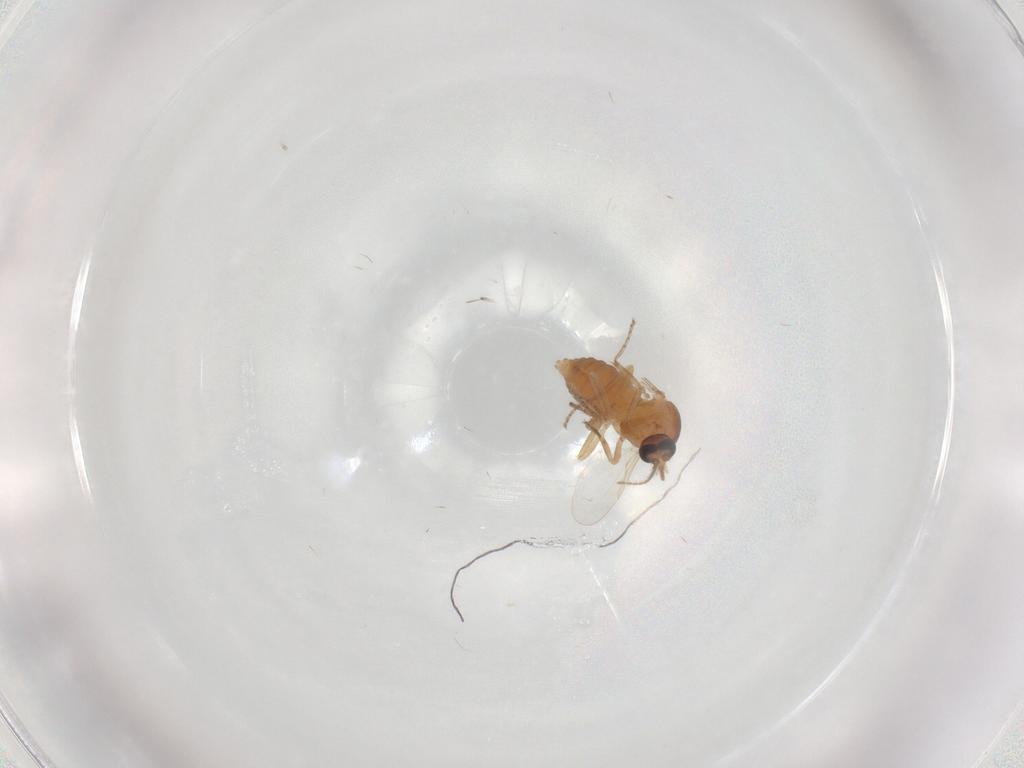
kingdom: Animalia
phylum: Arthropoda
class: Insecta
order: Diptera
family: Ceratopogonidae
